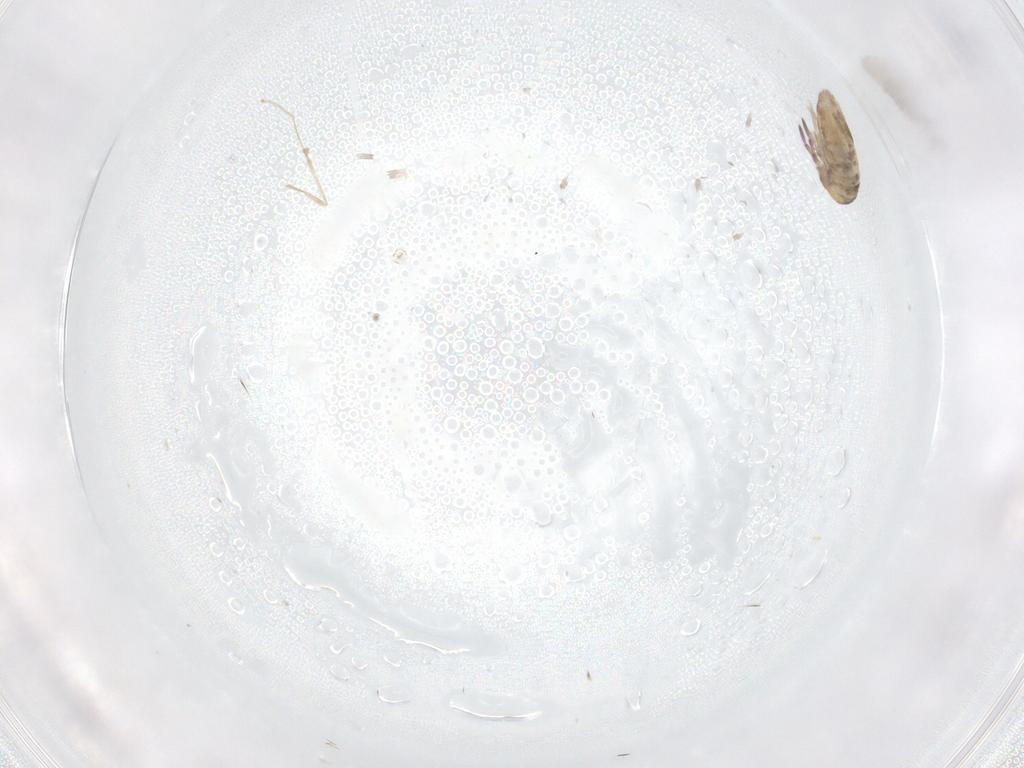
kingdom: Animalia
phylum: Arthropoda
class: Collembola
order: Entomobryomorpha
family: Entomobryidae
